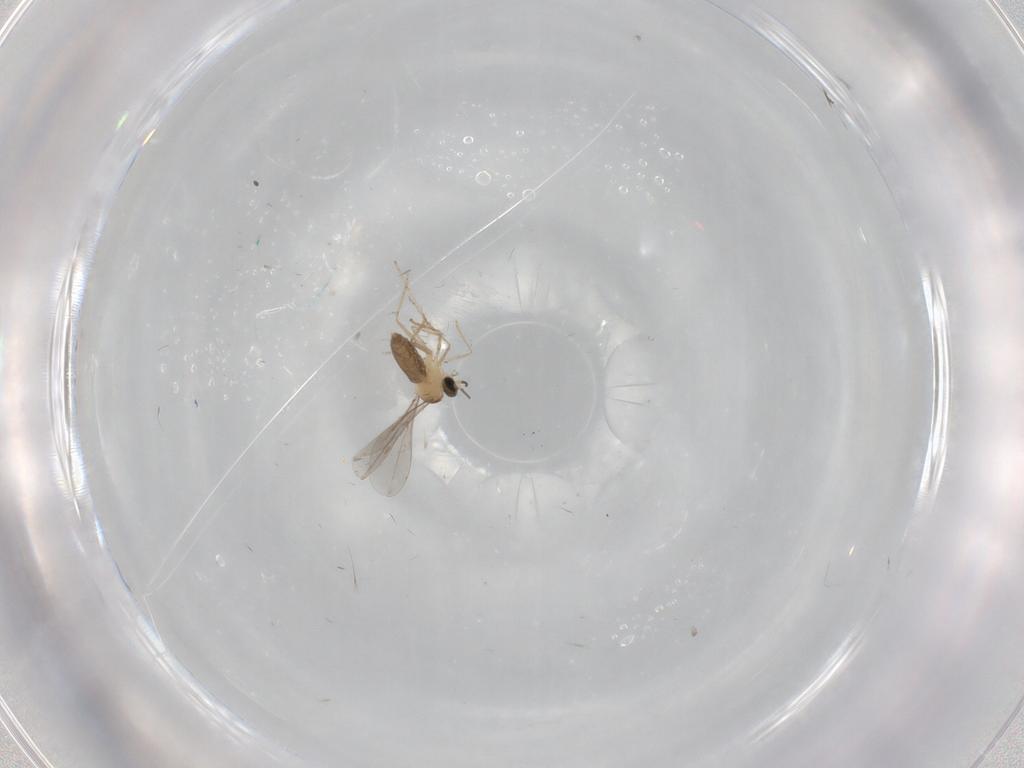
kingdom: Animalia
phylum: Arthropoda
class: Insecta
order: Diptera
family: Phoridae
